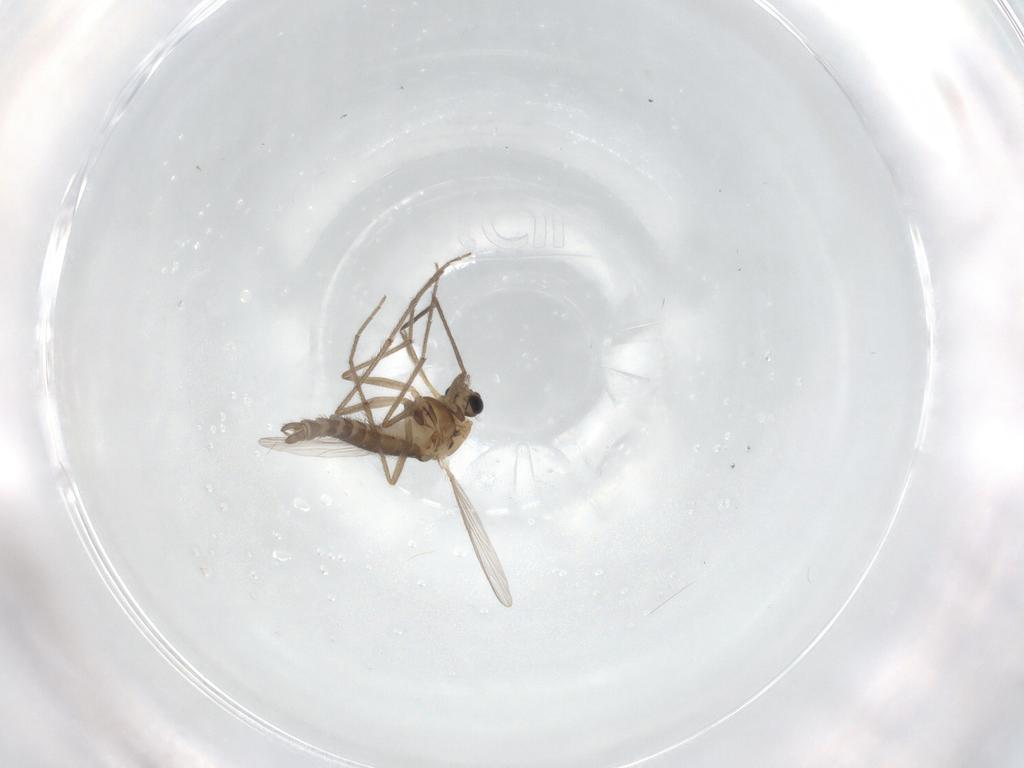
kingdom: Animalia
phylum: Arthropoda
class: Insecta
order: Diptera
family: Chironomidae
